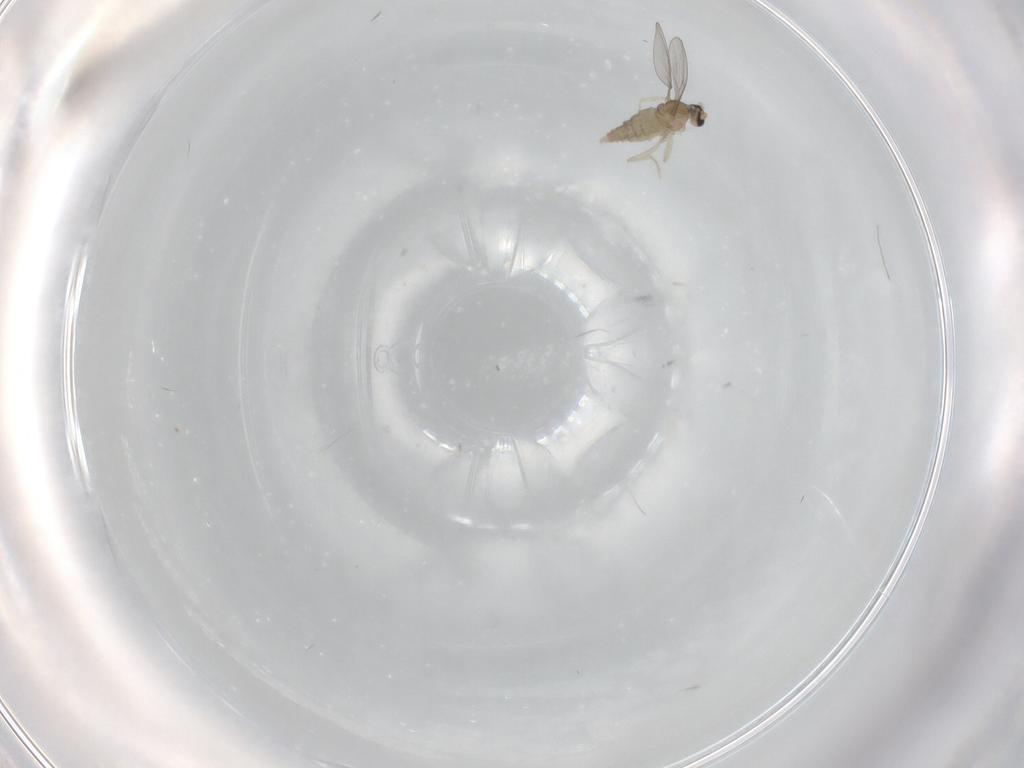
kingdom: Animalia
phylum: Arthropoda
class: Insecta
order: Diptera
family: Cecidomyiidae
